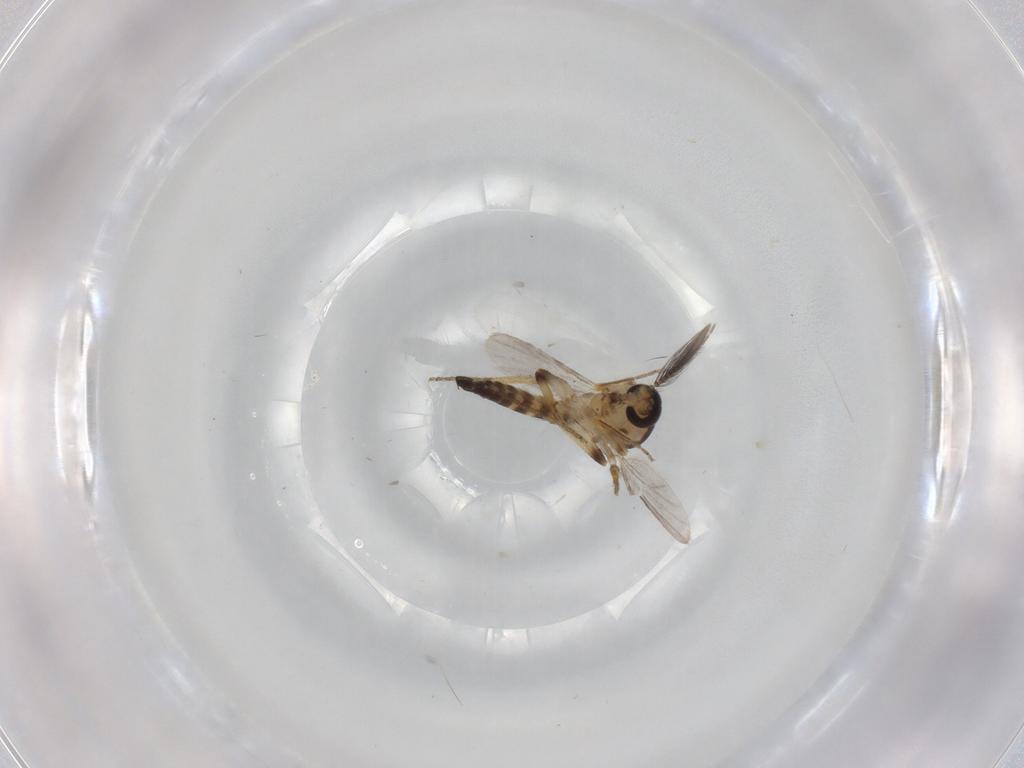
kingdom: Animalia
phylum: Arthropoda
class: Insecta
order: Diptera
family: Ceratopogonidae
